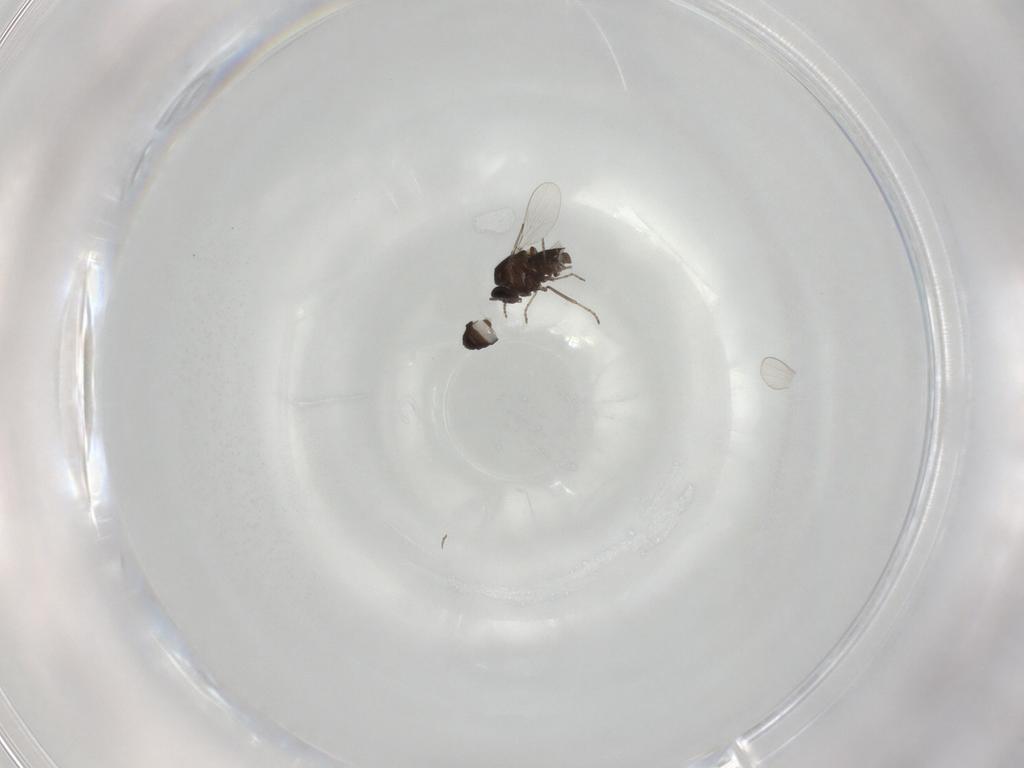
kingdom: Animalia
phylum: Arthropoda
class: Insecta
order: Diptera
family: Ceratopogonidae
